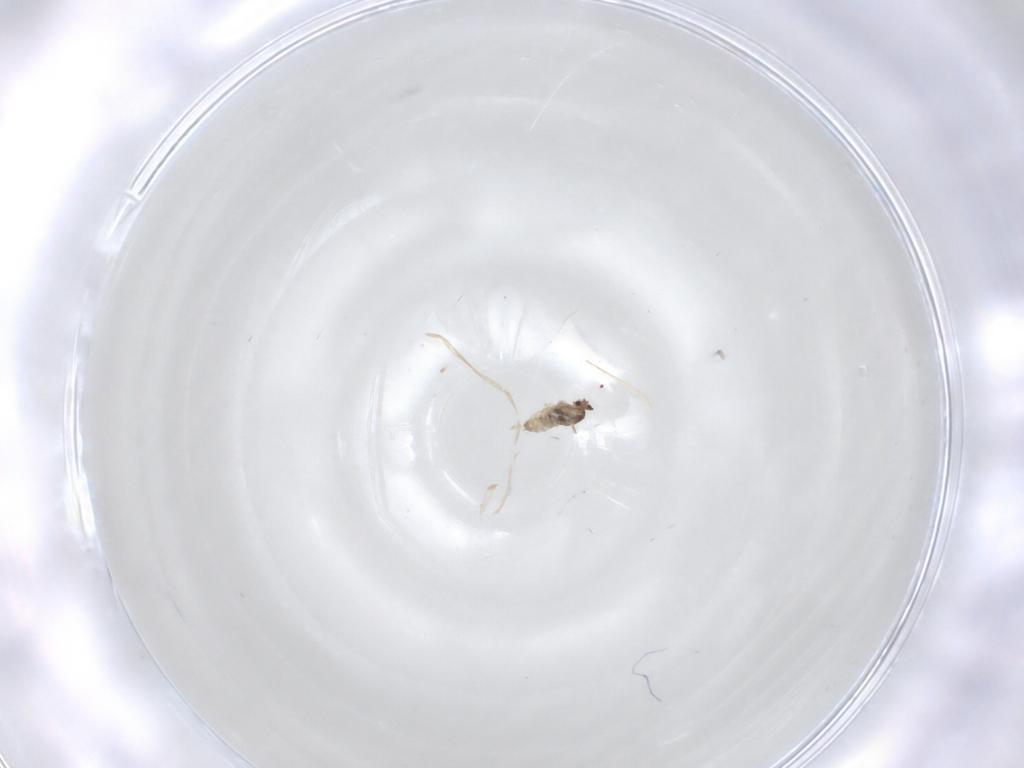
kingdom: Animalia
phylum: Arthropoda
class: Insecta
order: Diptera
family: Cecidomyiidae
